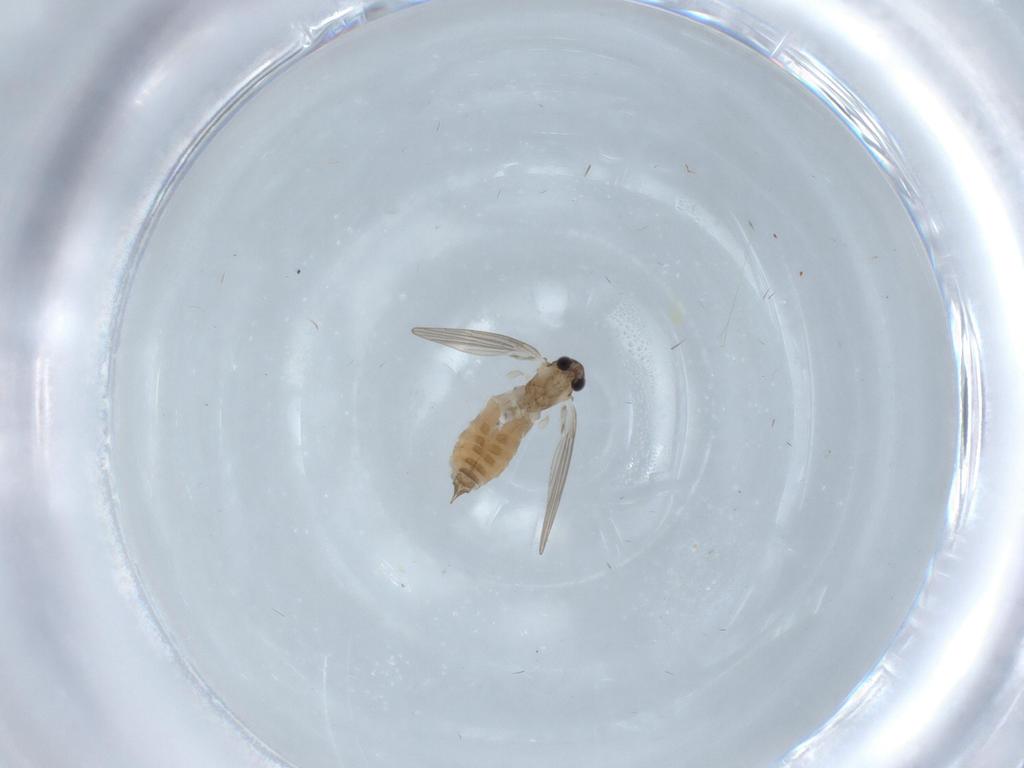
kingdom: Animalia
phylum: Arthropoda
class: Insecta
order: Diptera
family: Psychodidae
